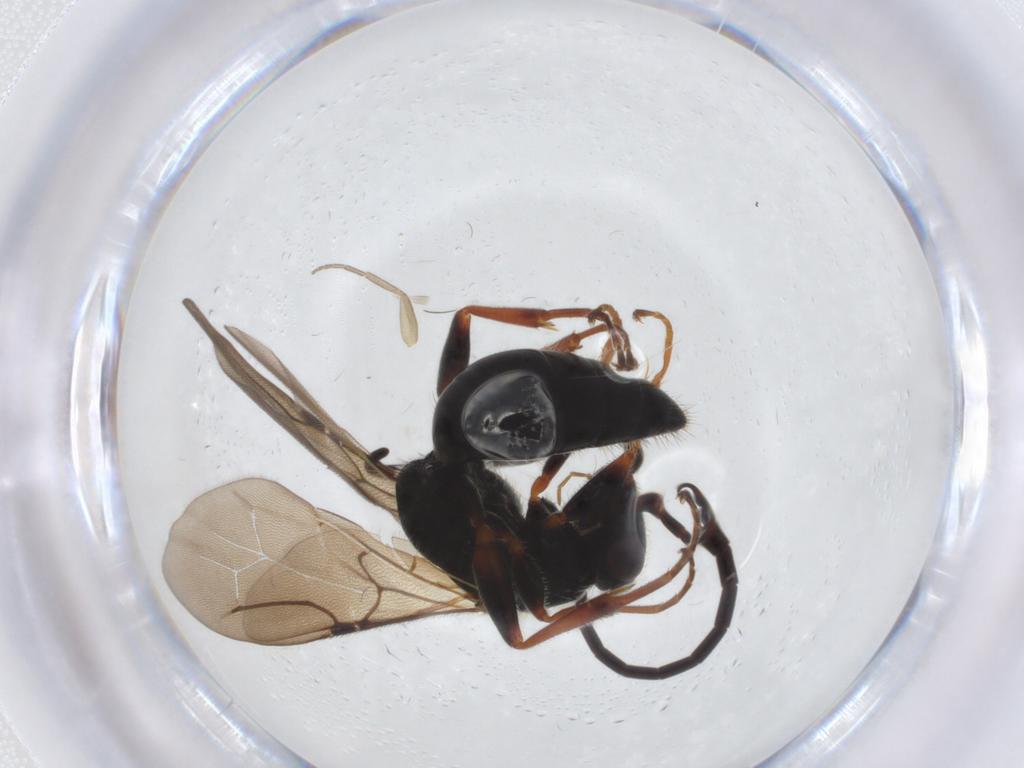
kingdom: Animalia
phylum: Arthropoda
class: Insecta
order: Hymenoptera
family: Bethylidae
